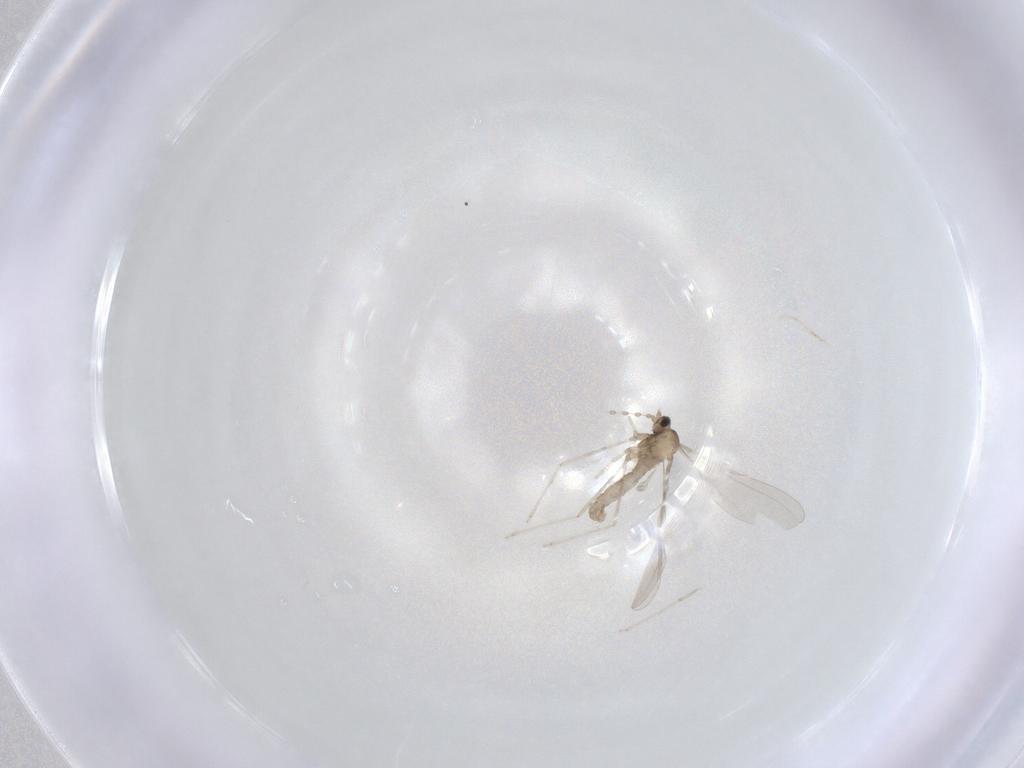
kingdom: Animalia
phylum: Arthropoda
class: Insecta
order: Diptera
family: Cecidomyiidae
